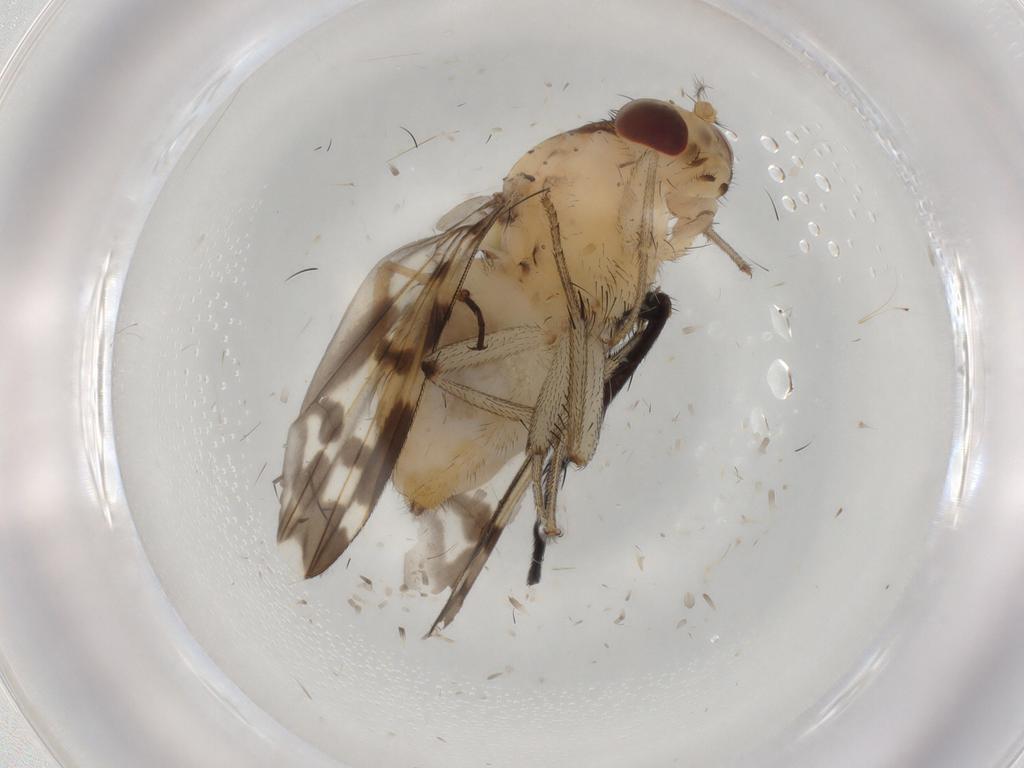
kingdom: Animalia
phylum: Arthropoda
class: Insecta
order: Diptera
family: Tachinidae
